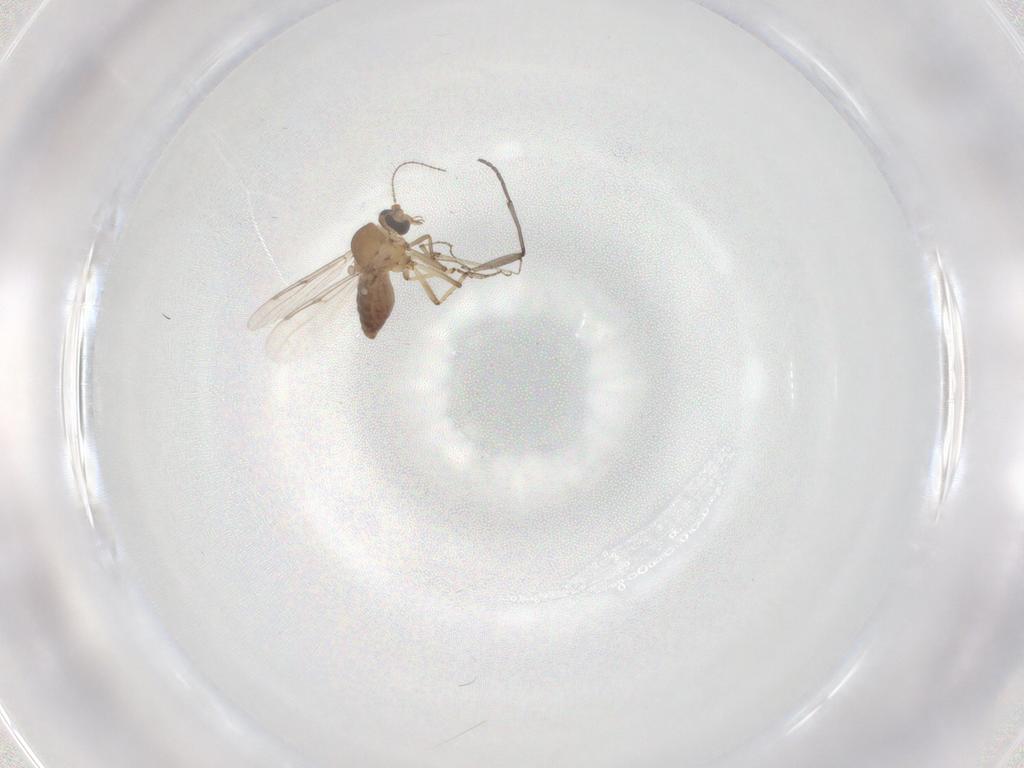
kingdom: Animalia
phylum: Arthropoda
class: Insecta
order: Diptera
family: Sciaridae
